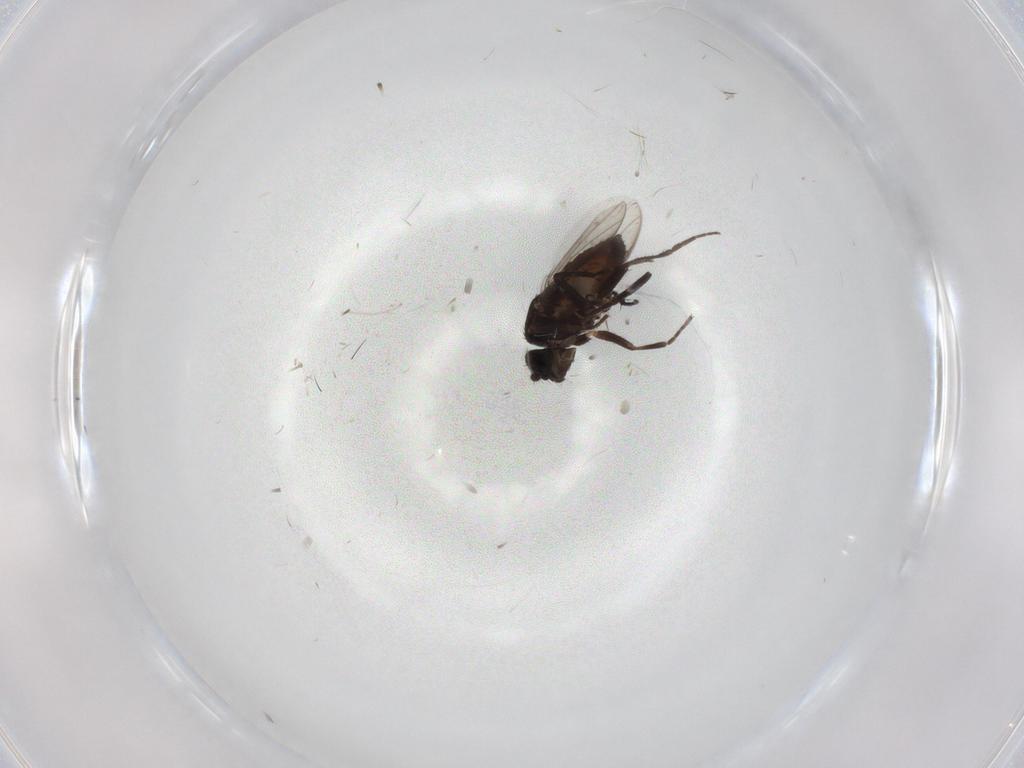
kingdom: Animalia
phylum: Arthropoda
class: Insecta
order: Diptera
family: Sphaeroceridae
